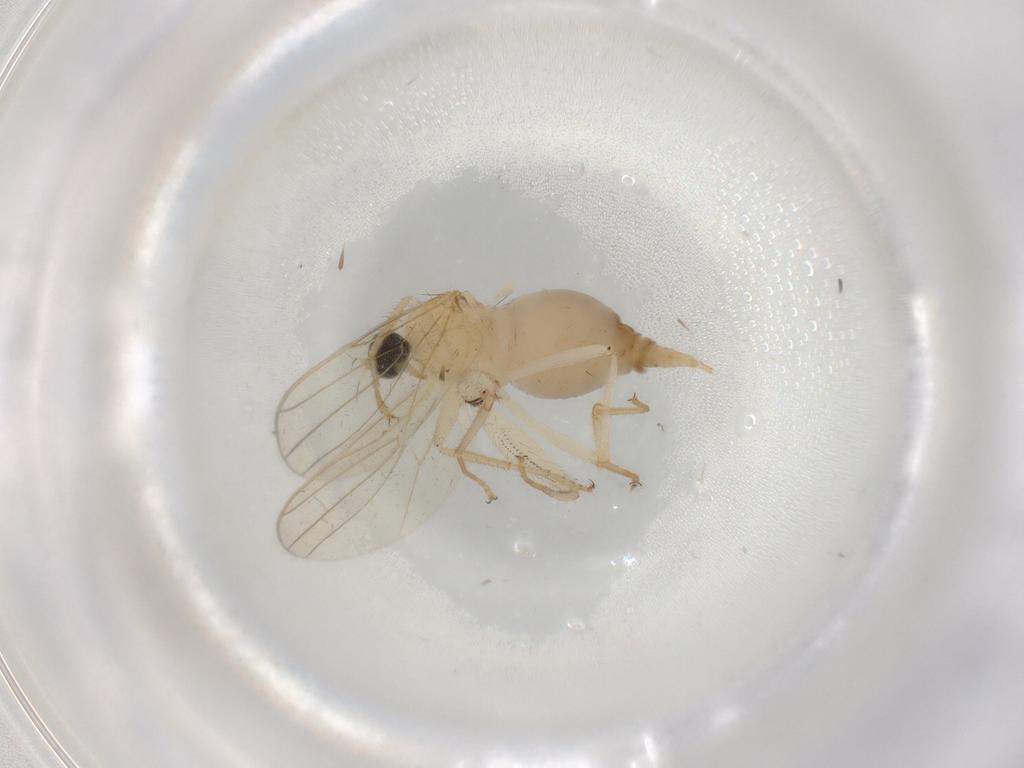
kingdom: Animalia
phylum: Arthropoda
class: Insecta
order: Diptera
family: Hybotidae
